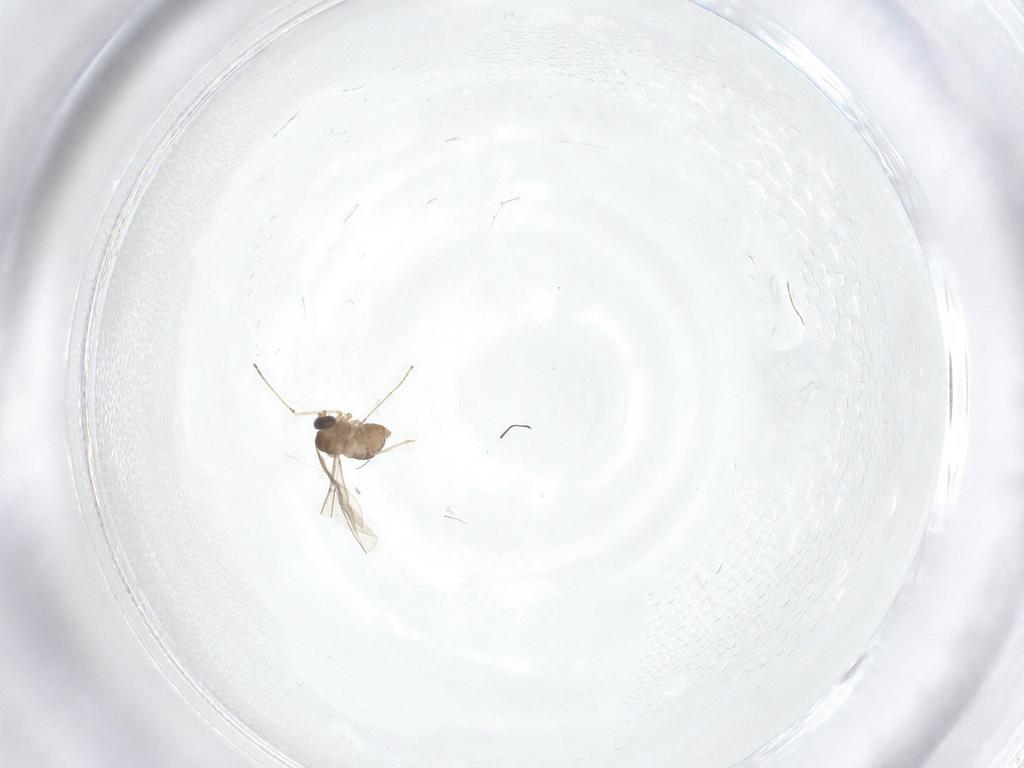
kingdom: Animalia
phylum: Arthropoda
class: Insecta
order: Diptera
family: Cecidomyiidae
